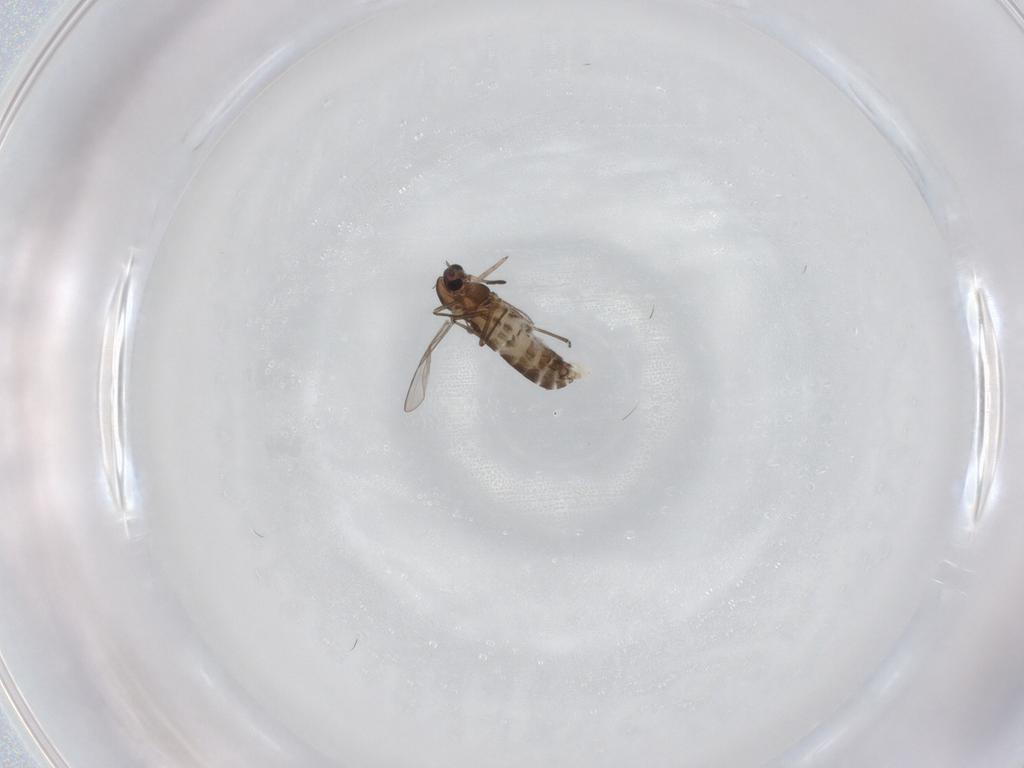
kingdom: Animalia
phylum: Arthropoda
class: Insecta
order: Diptera
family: Chironomidae
